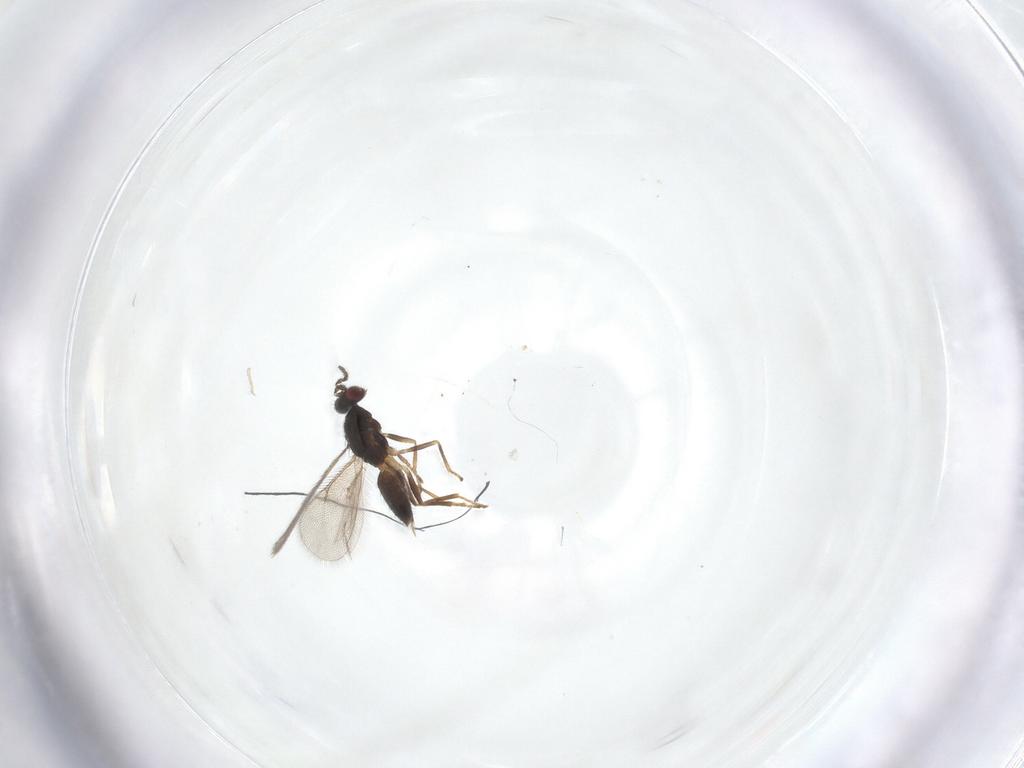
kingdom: Animalia
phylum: Arthropoda
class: Insecta
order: Hymenoptera
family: Eulophidae
